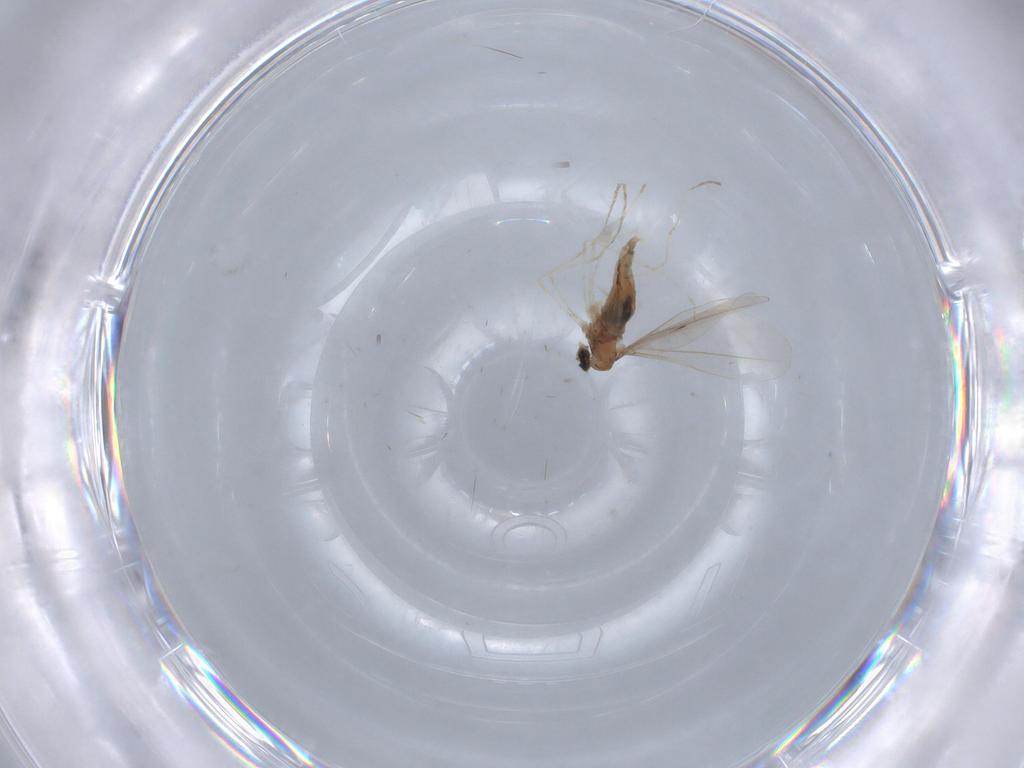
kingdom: Animalia
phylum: Arthropoda
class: Insecta
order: Diptera
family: Cecidomyiidae
